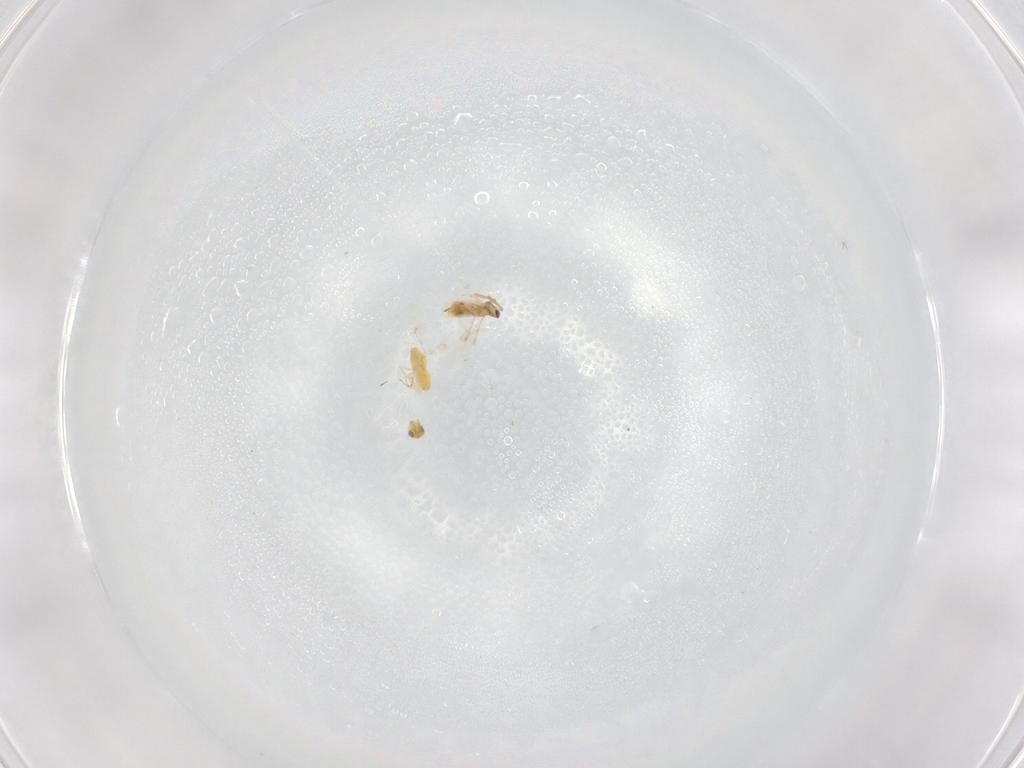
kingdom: Animalia
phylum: Arthropoda
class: Insecta
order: Hymenoptera
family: Trichogrammatidae
